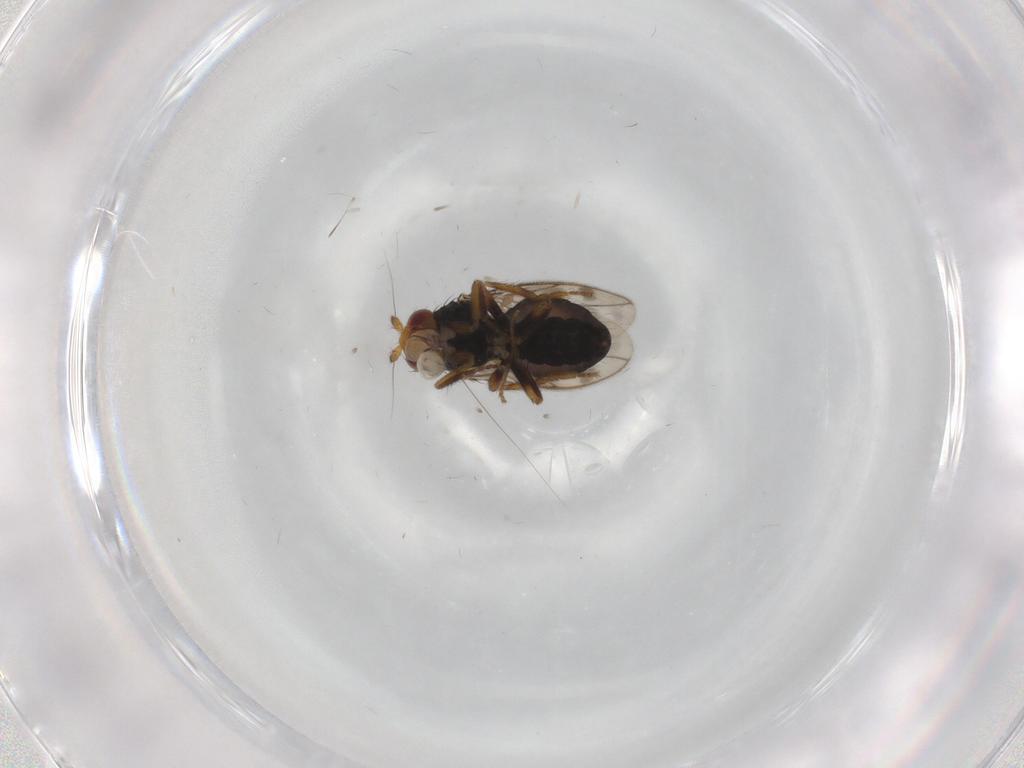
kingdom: Animalia
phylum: Arthropoda
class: Insecta
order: Diptera
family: Sphaeroceridae
